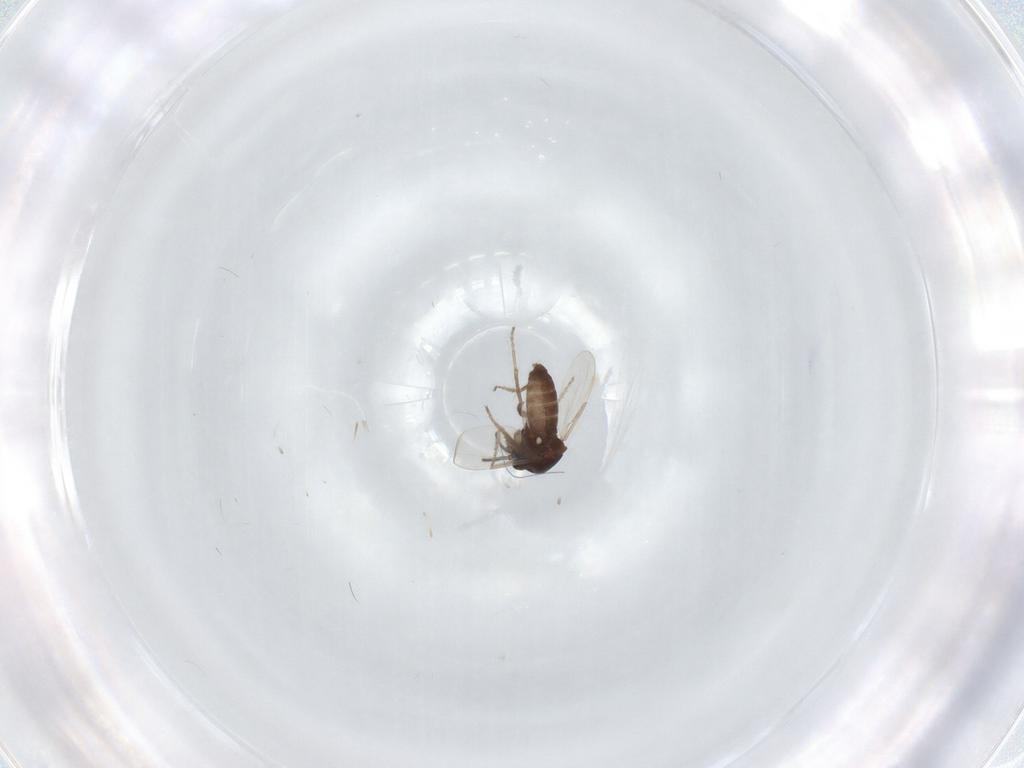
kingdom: Animalia
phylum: Arthropoda
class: Insecta
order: Diptera
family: Ceratopogonidae
